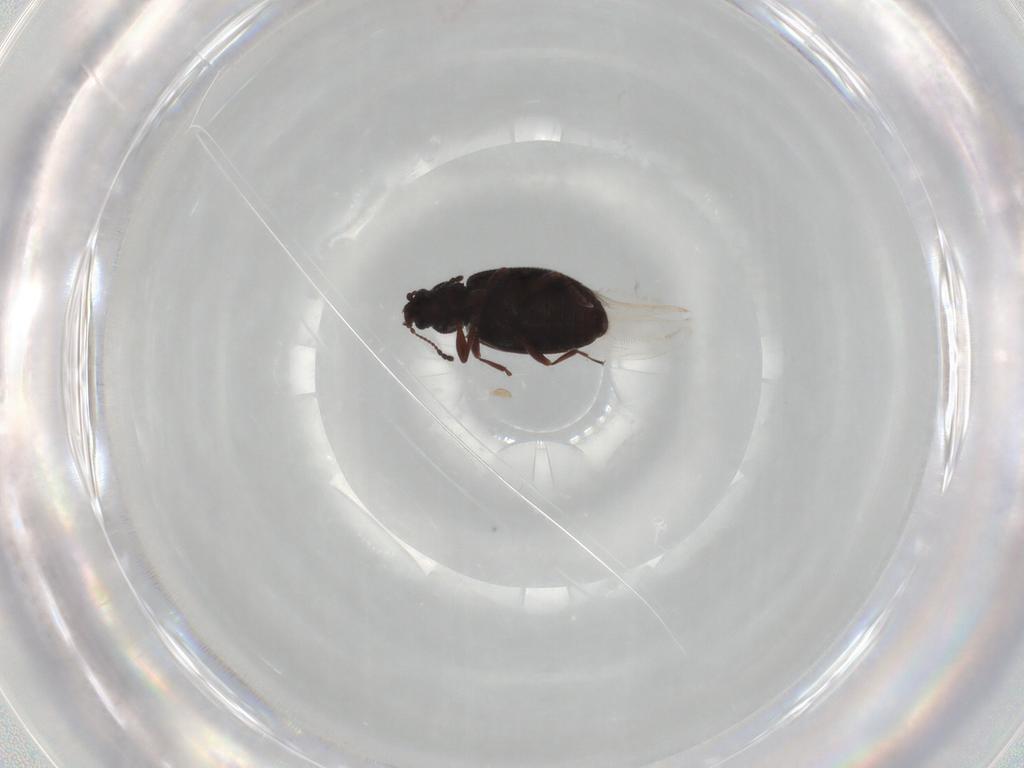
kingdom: Animalia
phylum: Arthropoda
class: Insecta
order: Coleoptera
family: Latridiidae
